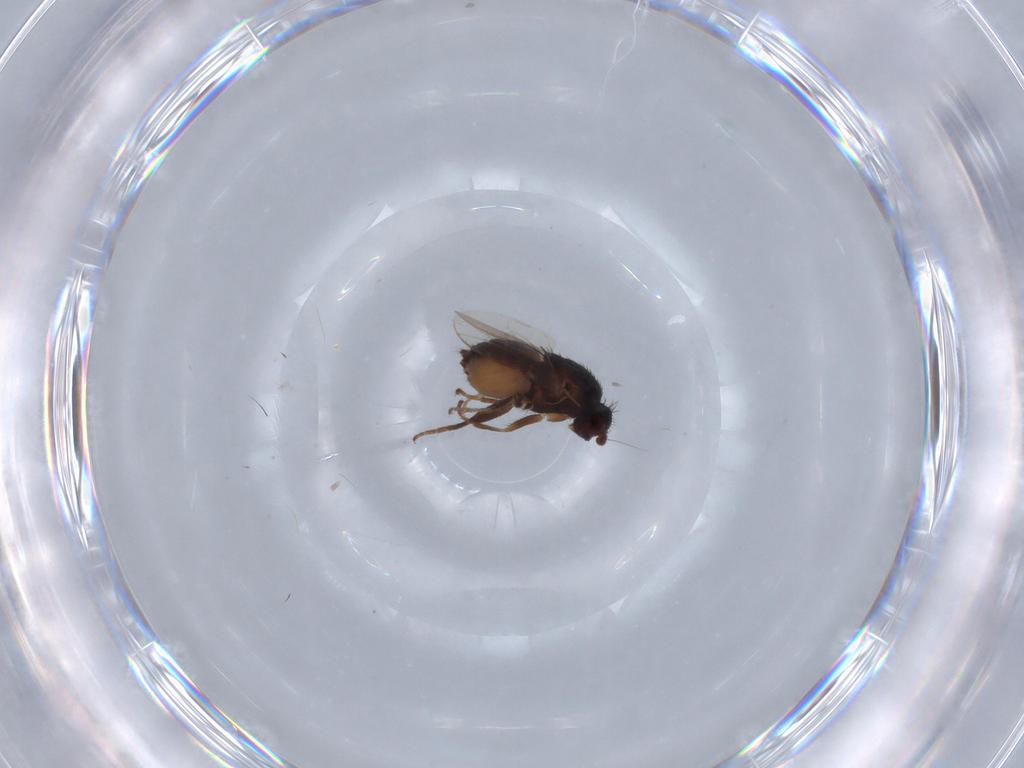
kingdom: Animalia
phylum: Arthropoda
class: Insecta
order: Diptera
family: Sphaeroceridae
